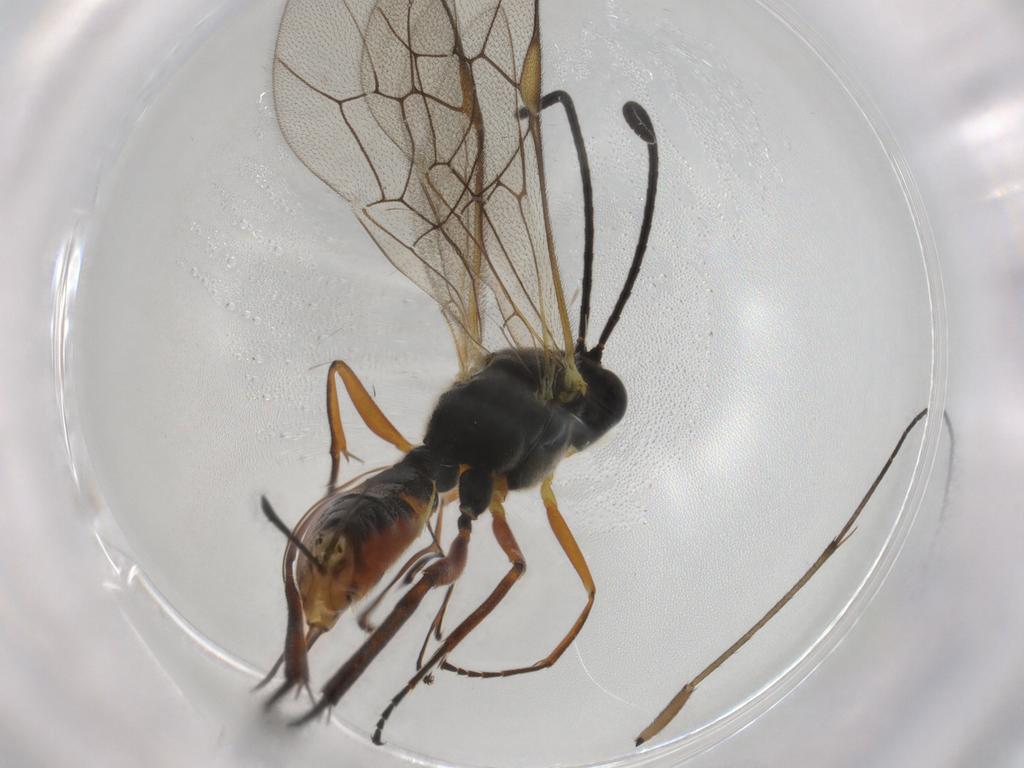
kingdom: Animalia
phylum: Arthropoda
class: Insecta
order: Hymenoptera
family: Ichneumonidae
